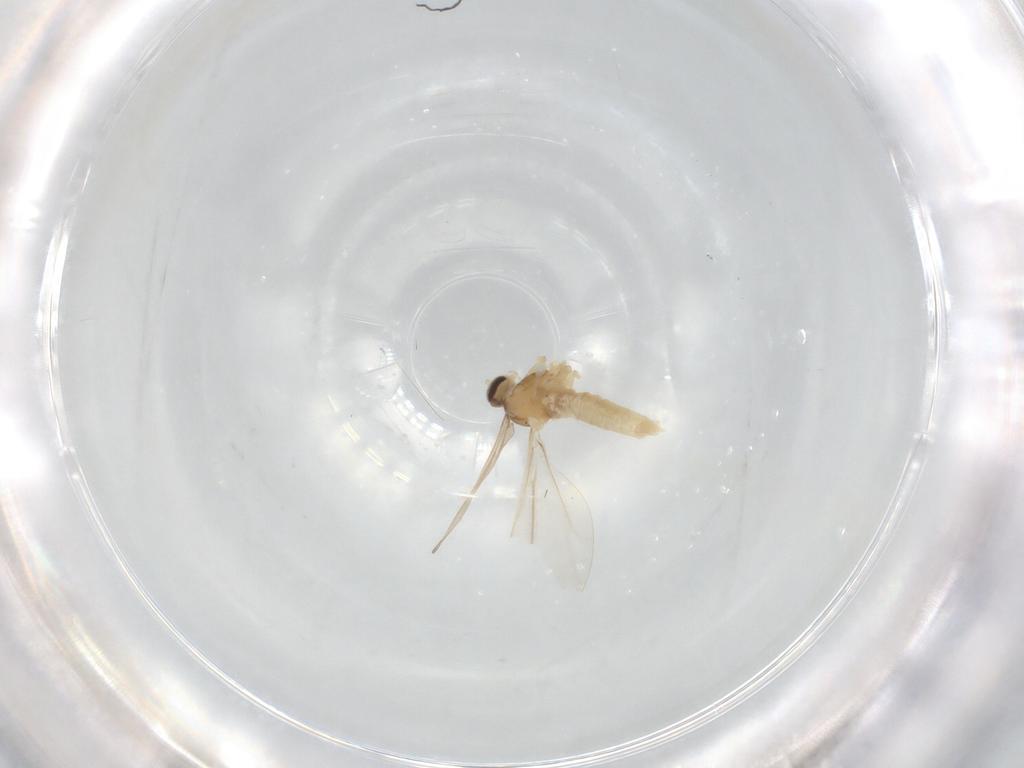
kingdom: Animalia
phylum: Arthropoda
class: Insecta
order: Diptera
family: Cecidomyiidae
